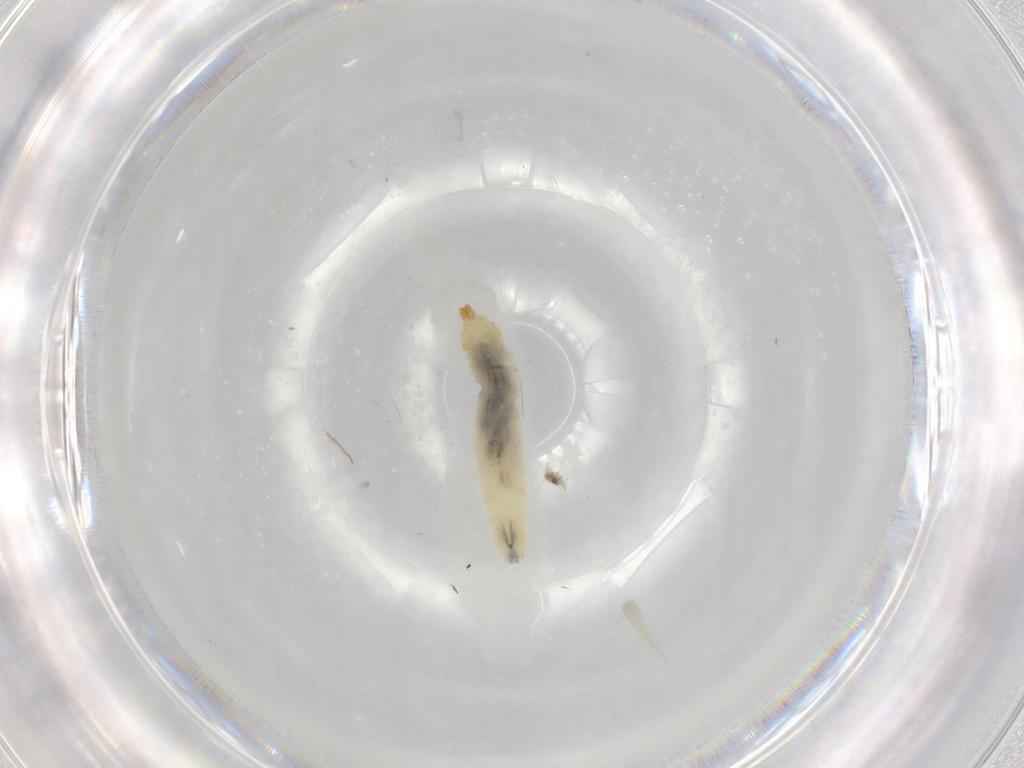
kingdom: Animalia
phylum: Arthropoda
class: Insecta
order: Diptera
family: Drosophilidae
